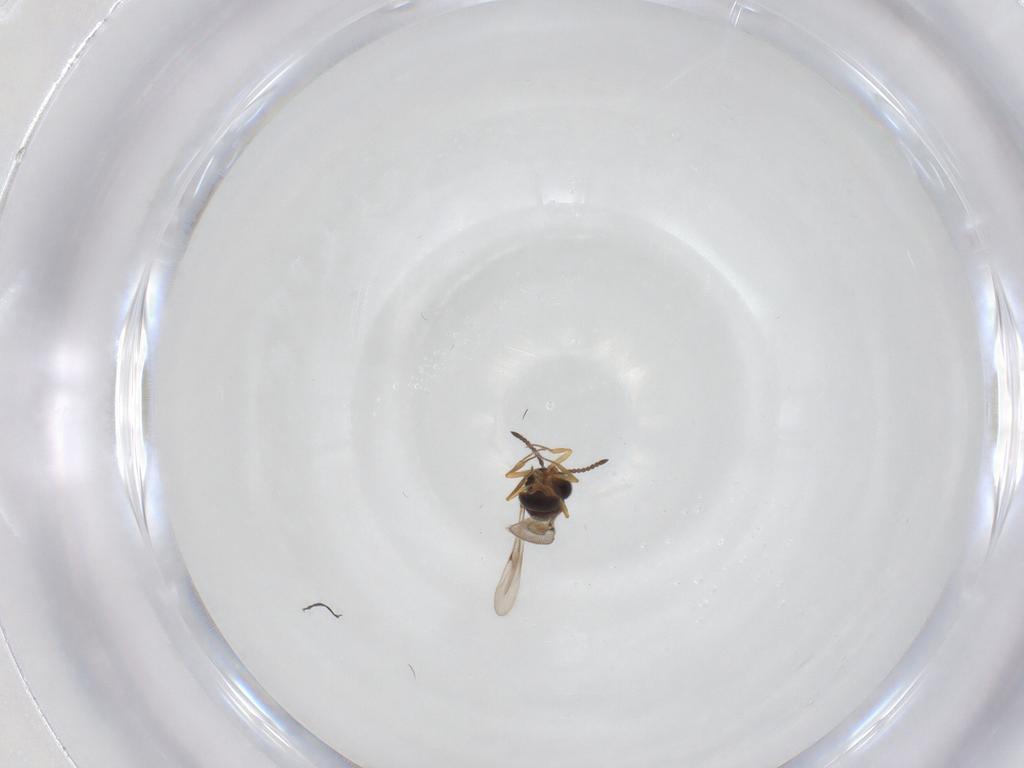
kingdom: Animalia
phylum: Arthropoda
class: Arachnida
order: Araneae
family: Pholcidae
